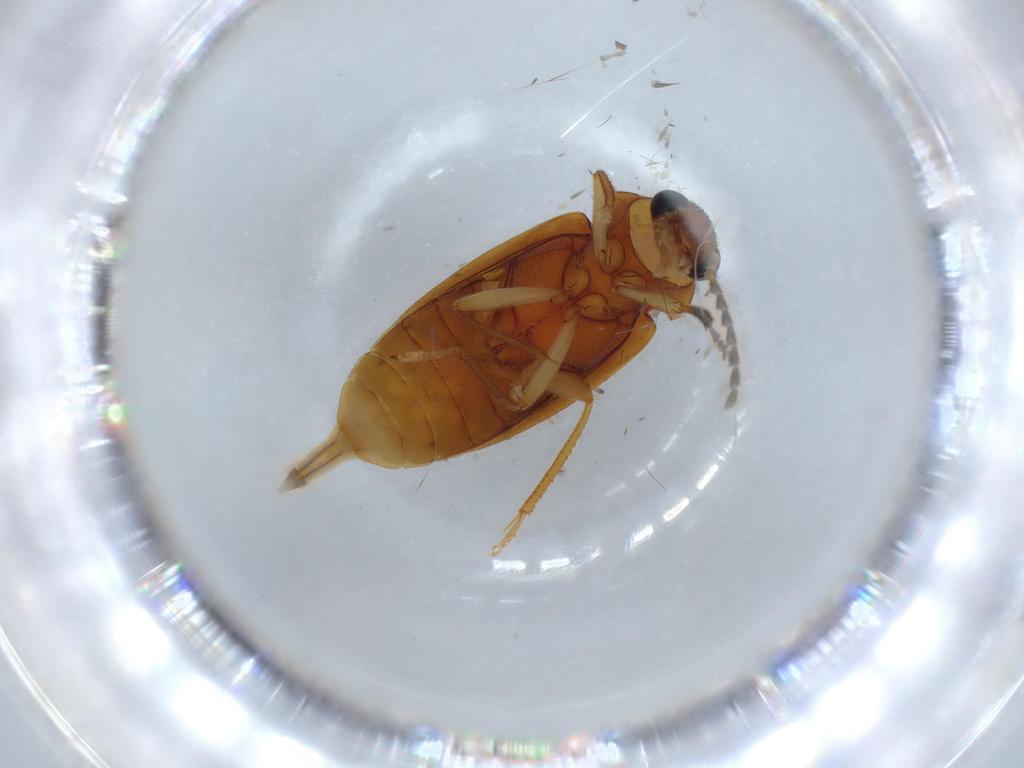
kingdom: Animalia
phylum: Arthropoda
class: Insecta
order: Coleoptera
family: Ptilodactylidae
